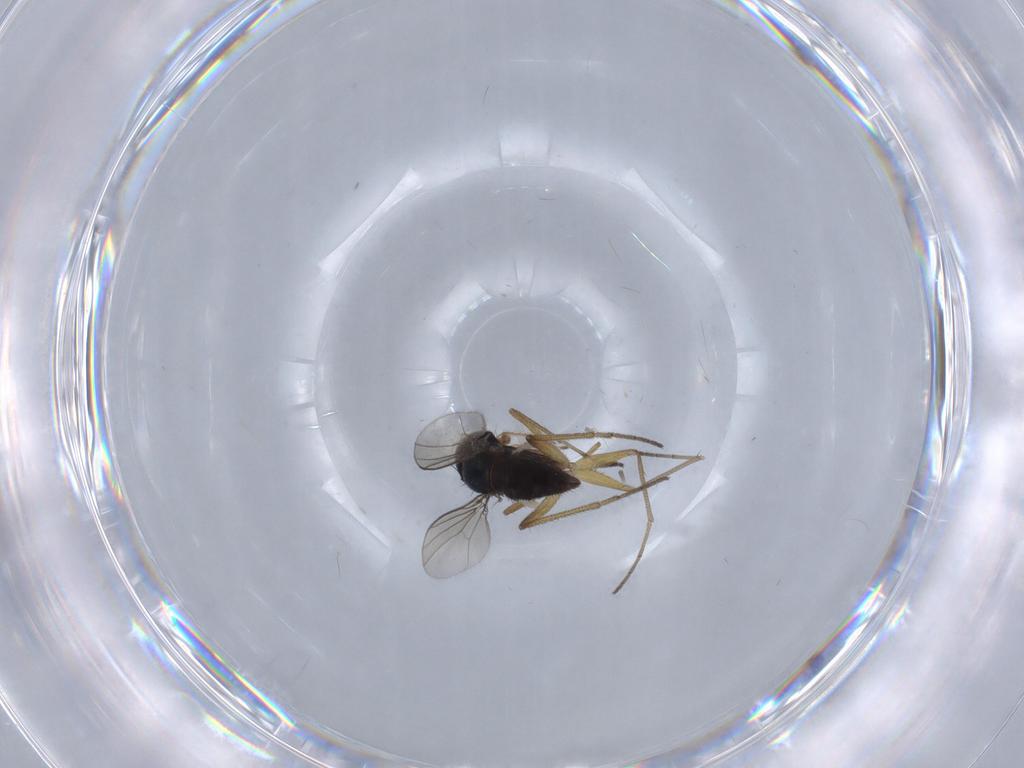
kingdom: Animalia
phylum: Arthropoda
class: Insecta
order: Diptera
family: Dolichopodidae
